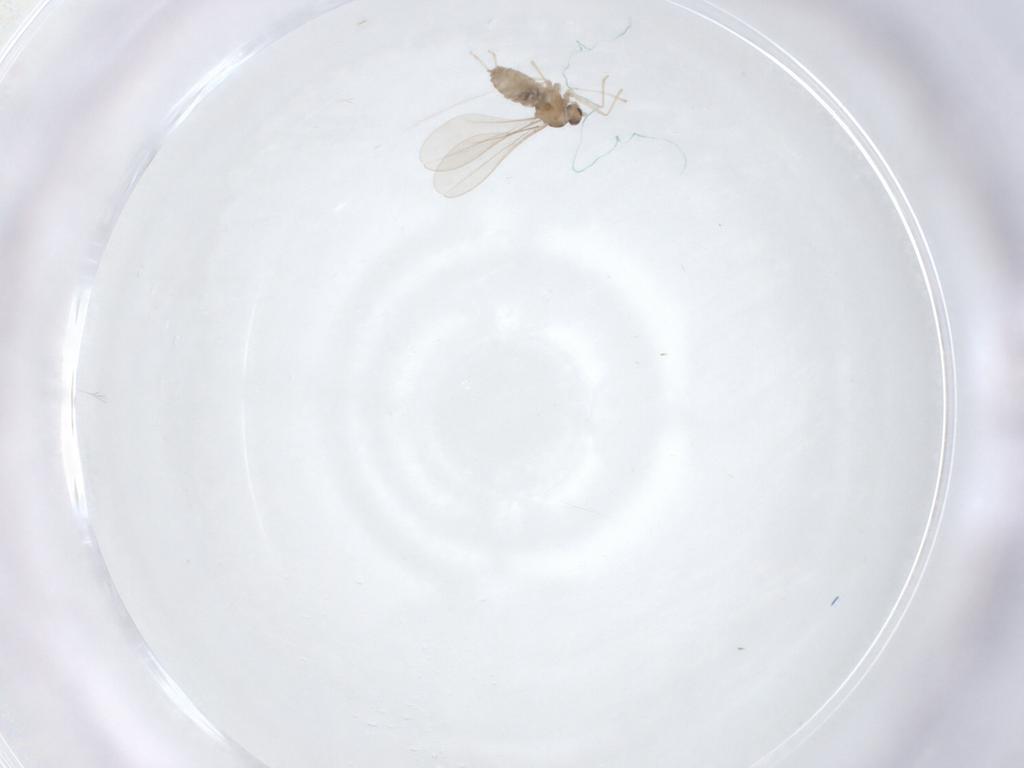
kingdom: Animalia
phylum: Arthropoda
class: Insecta
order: Diptera
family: Cecidomyiidae
